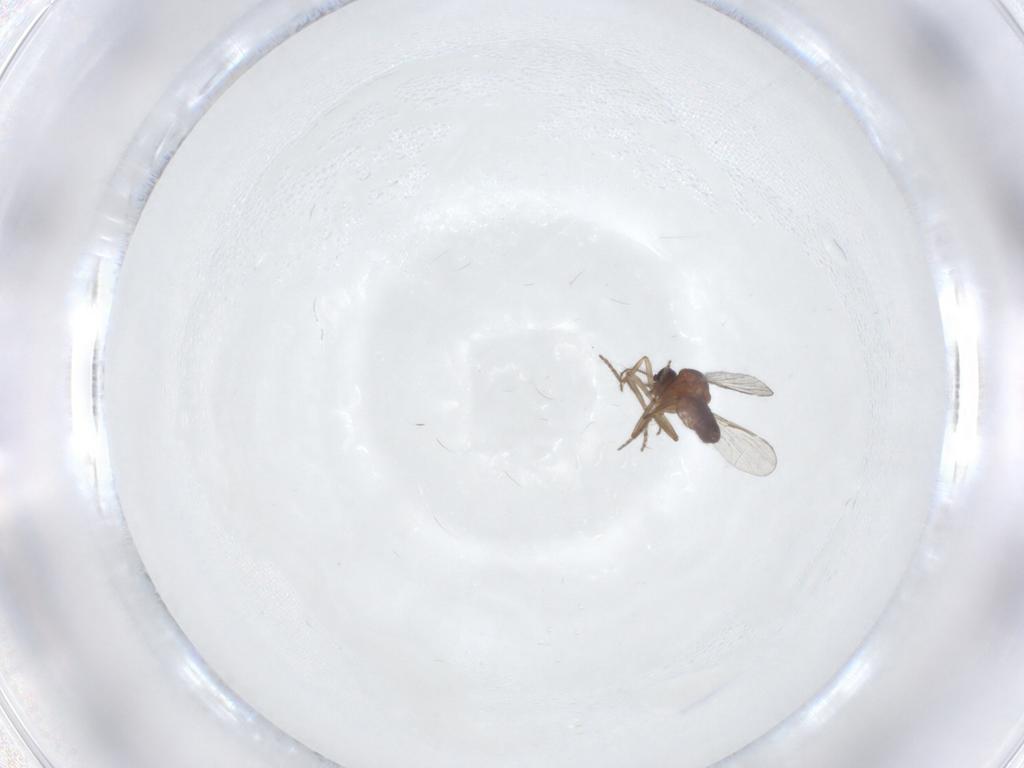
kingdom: Animalia
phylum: Arthropoda
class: Insecta
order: Diptera
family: Ceratopogonidae
